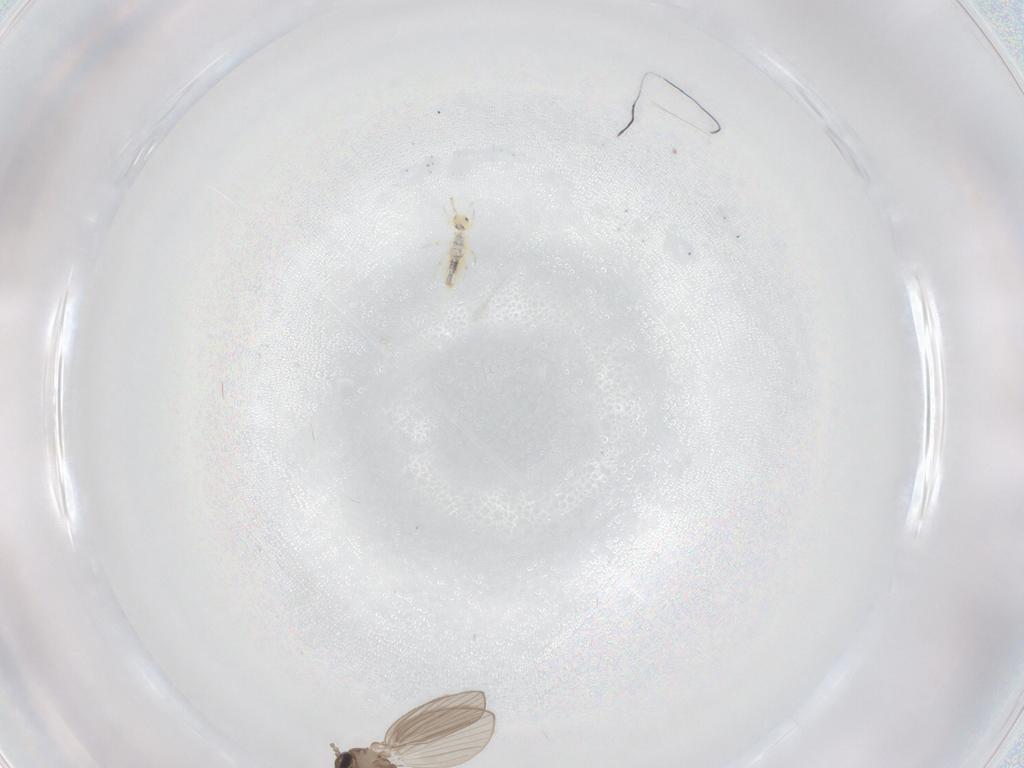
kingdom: Animalia
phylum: Arthropoda
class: Insecta
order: Diptera
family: Psychodidae
